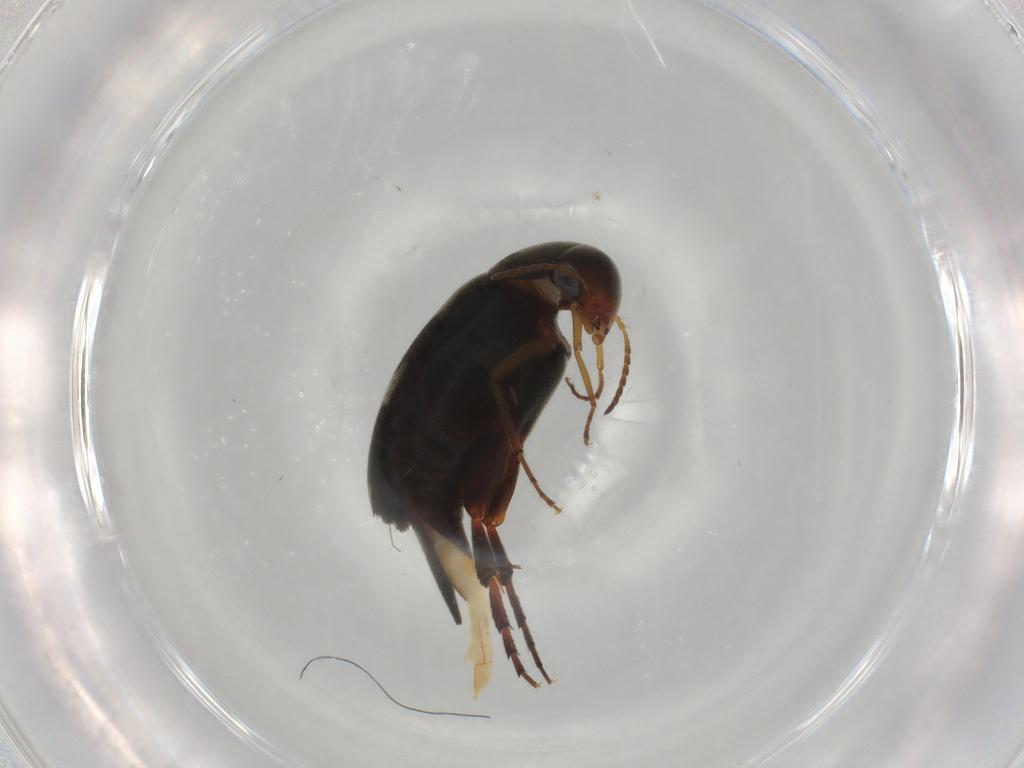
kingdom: Animalia
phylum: Arthropoda
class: Insecta
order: Coleoptera
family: Mordellidae
